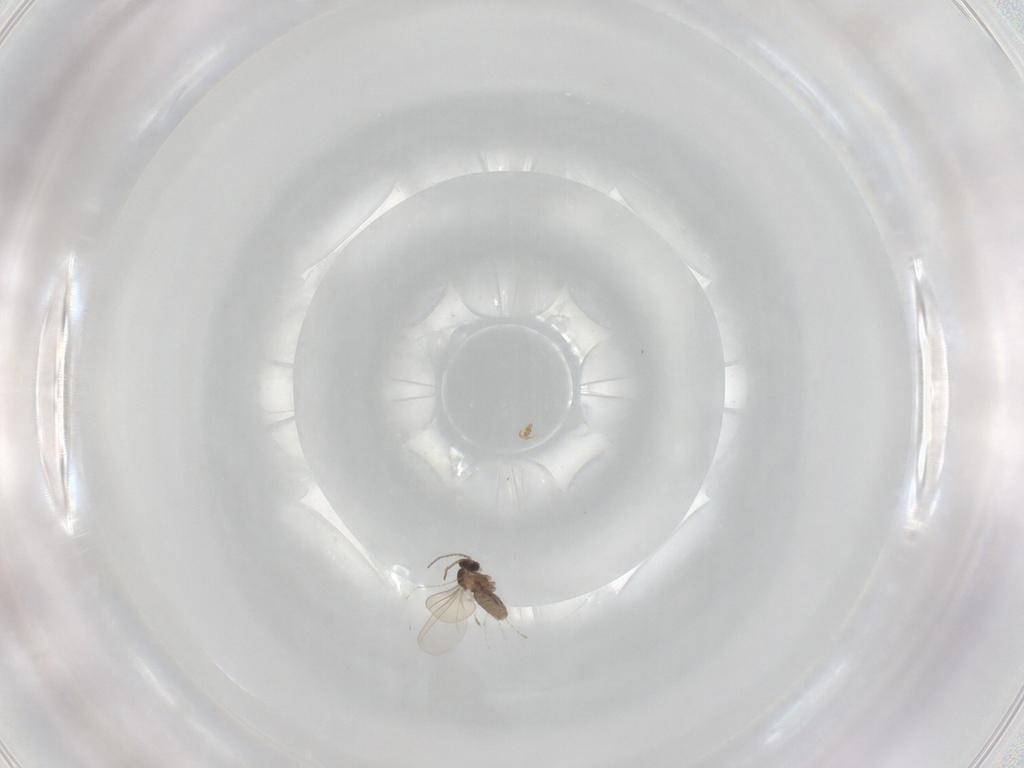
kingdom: Animalia
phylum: Arthropoda
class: Insecta
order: Diptera
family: Cecidomyiidae
